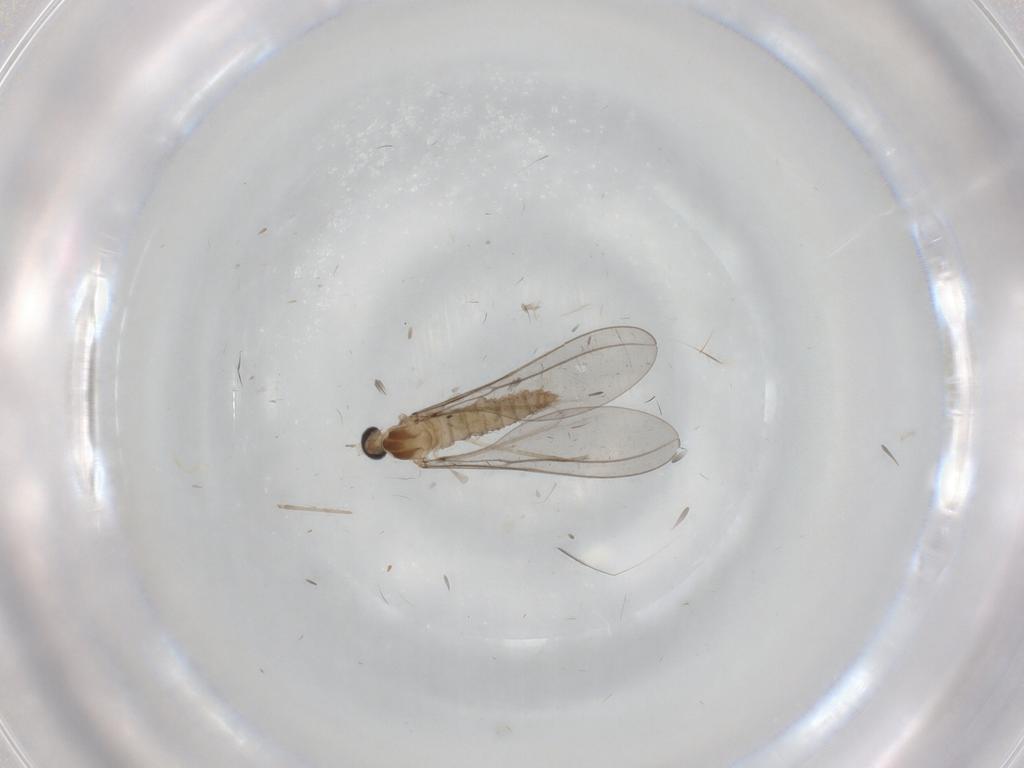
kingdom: Animalia
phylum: Arthropoda
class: Insecta
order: Diptera
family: Cecidomyiidae
